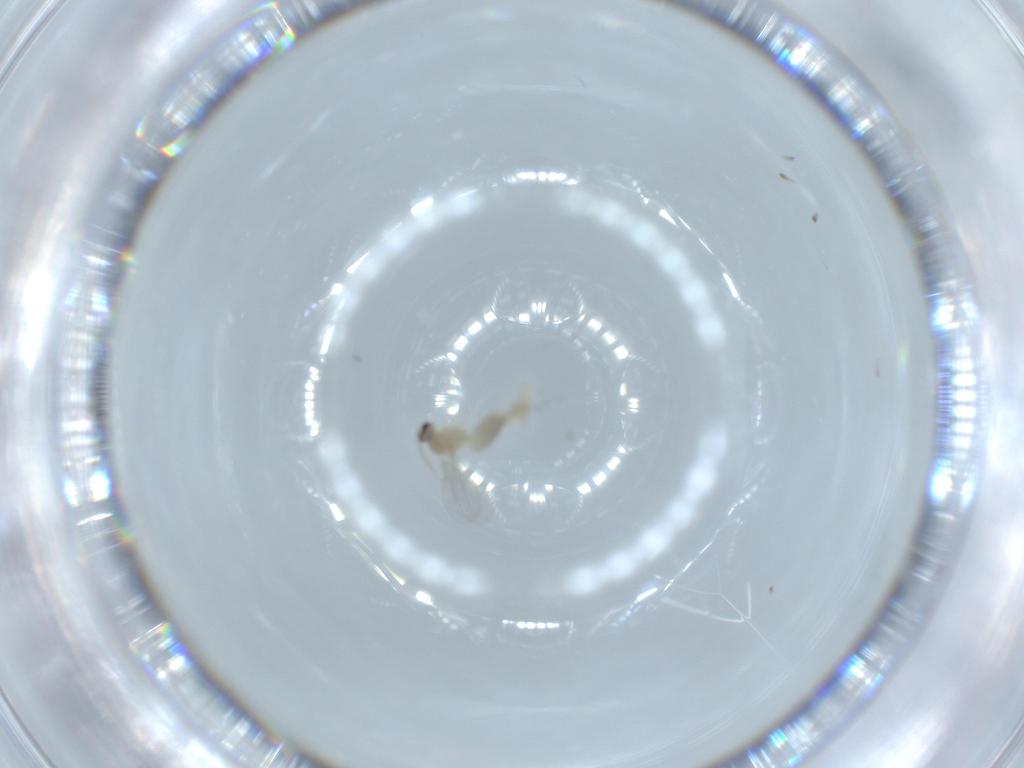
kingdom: Animalia
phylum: Arthropoda
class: Insecta
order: Diptera
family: Cecidomyiidae
